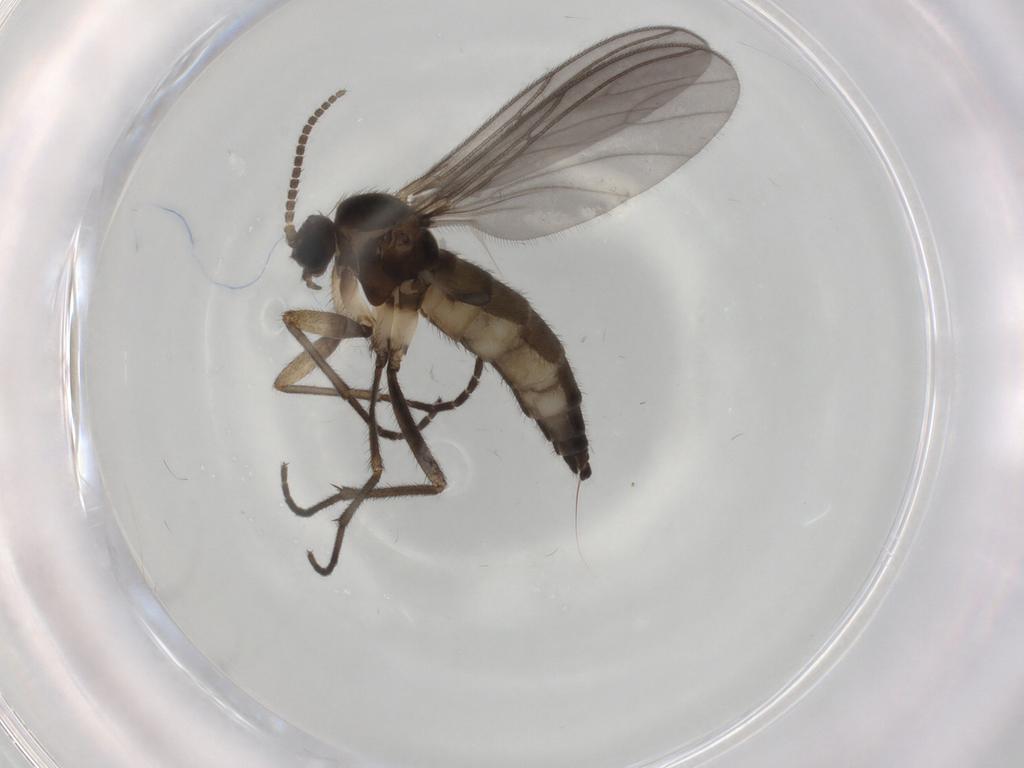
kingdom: Animalia
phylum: Arthropoda
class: Insecta
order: Diptera
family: Sciaridae
